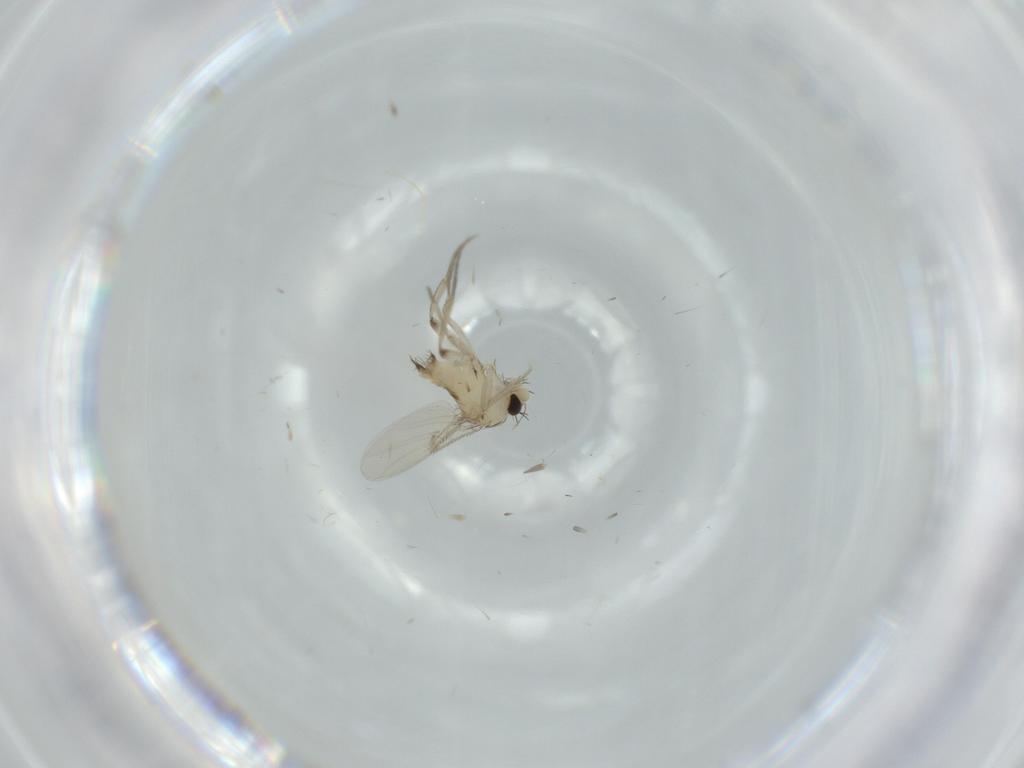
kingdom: Animalia
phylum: Arthropoda
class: Insecta
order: Diptera
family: Phoridae
